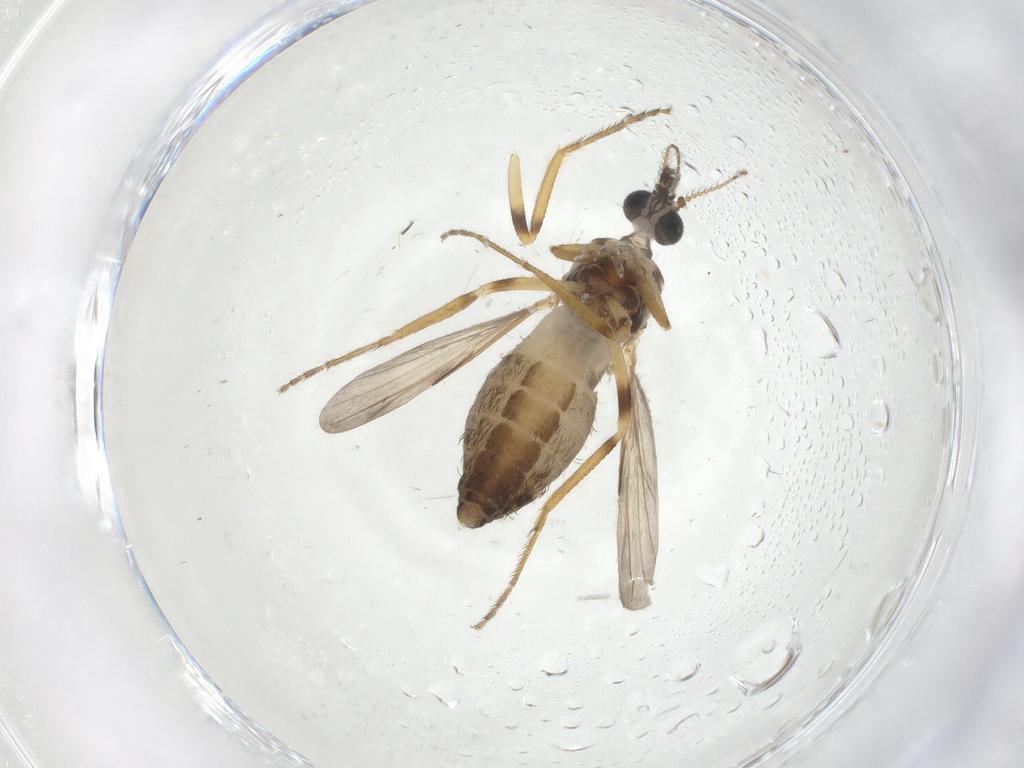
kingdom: Animalia
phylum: Arthropoda
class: Insecta
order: Diptera
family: Ceratopogonidae
